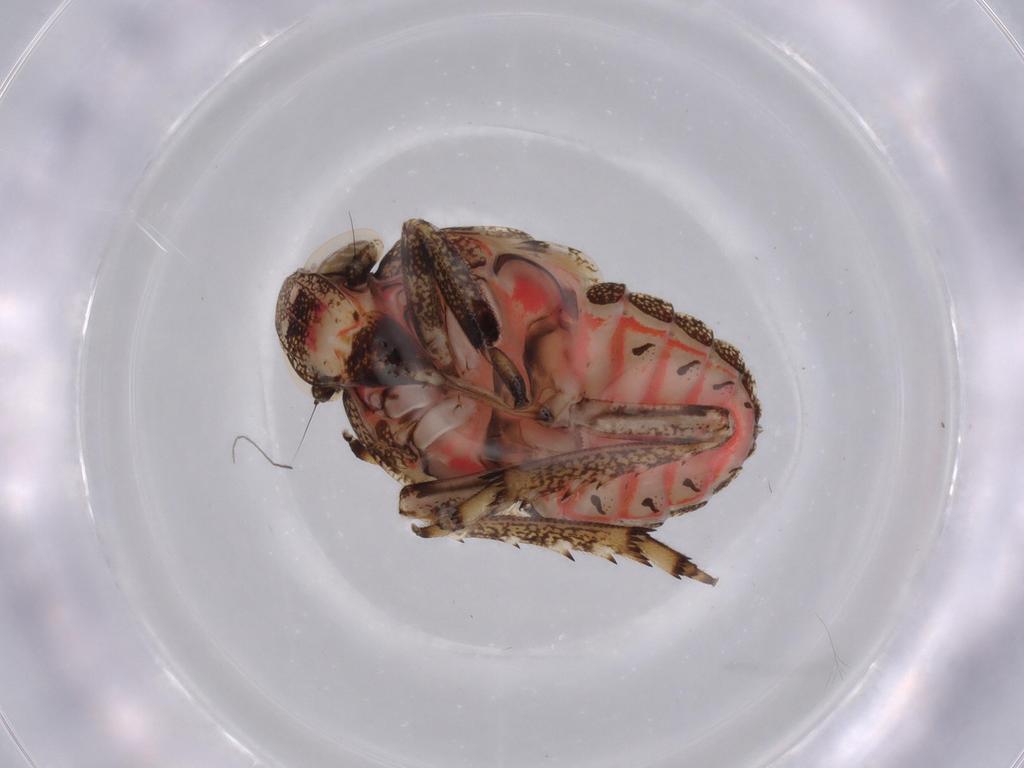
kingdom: Animalia
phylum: Arthropoda
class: Insecta
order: Hemiptera
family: Issidae
